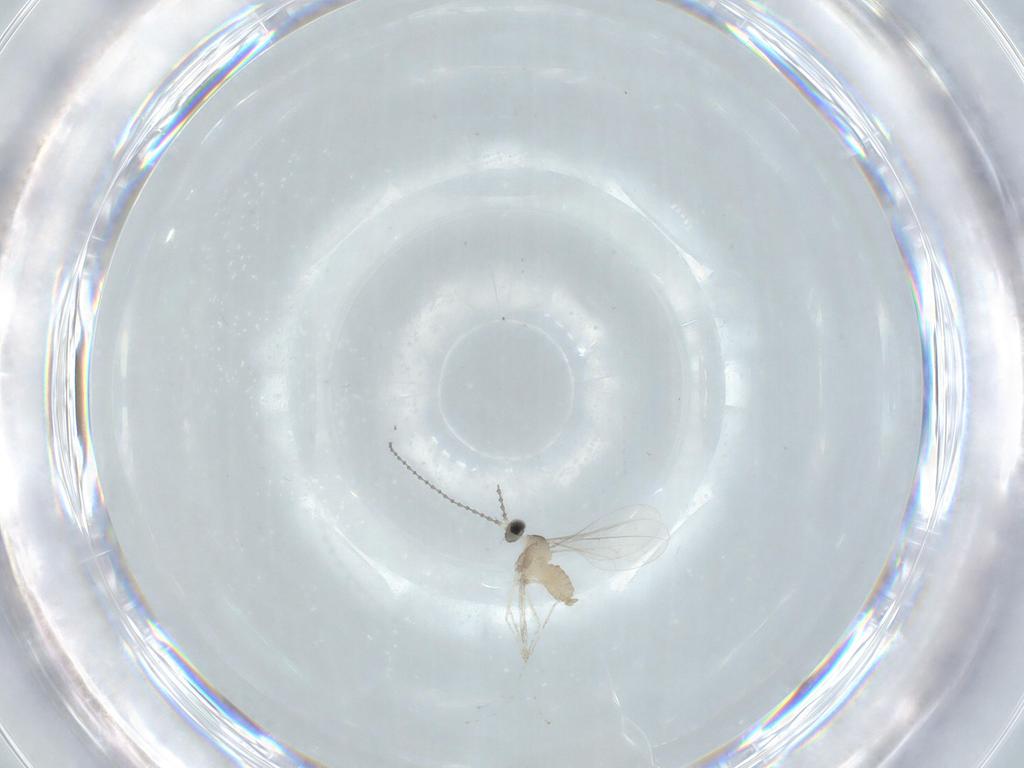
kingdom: Animalia
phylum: Arthropoda
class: Insecta
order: Diptera
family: Cecidomyiidae
